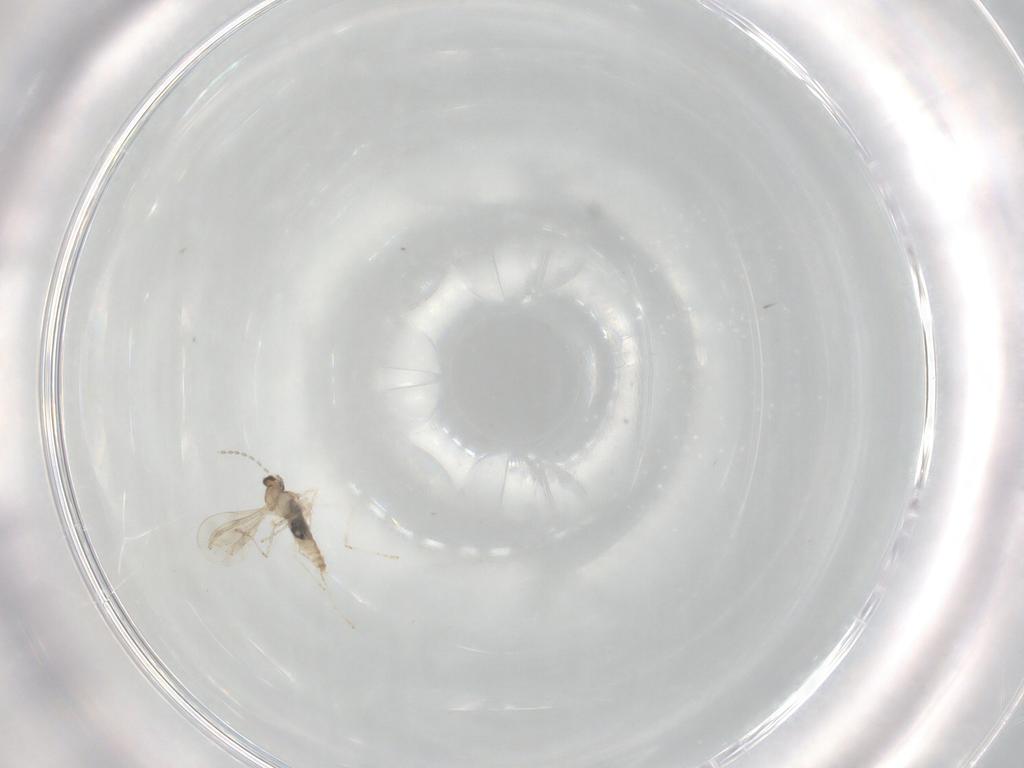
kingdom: Animalia
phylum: Arthropoda
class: Insecta
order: Diptera
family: Cecidomyiidae
